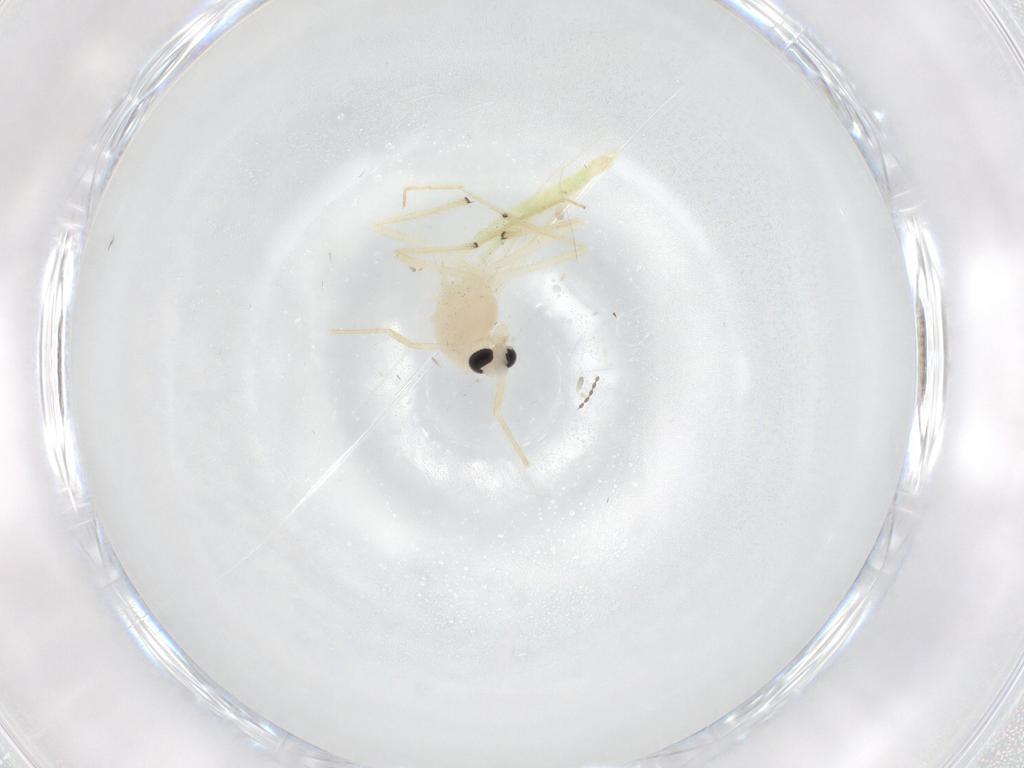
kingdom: Animalia
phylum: Arthropoda
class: Insecta
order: Diptera
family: Chironomidae
